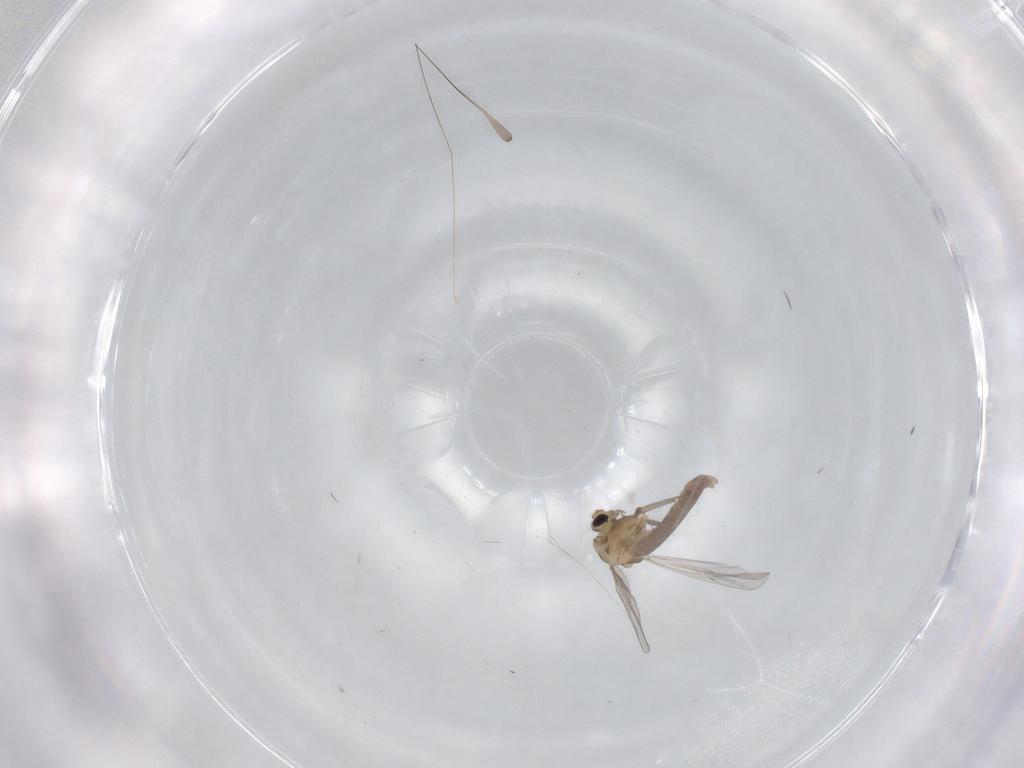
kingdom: Animalia
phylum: Arthropoda
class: Insecta
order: Diptera
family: Chironomidae
